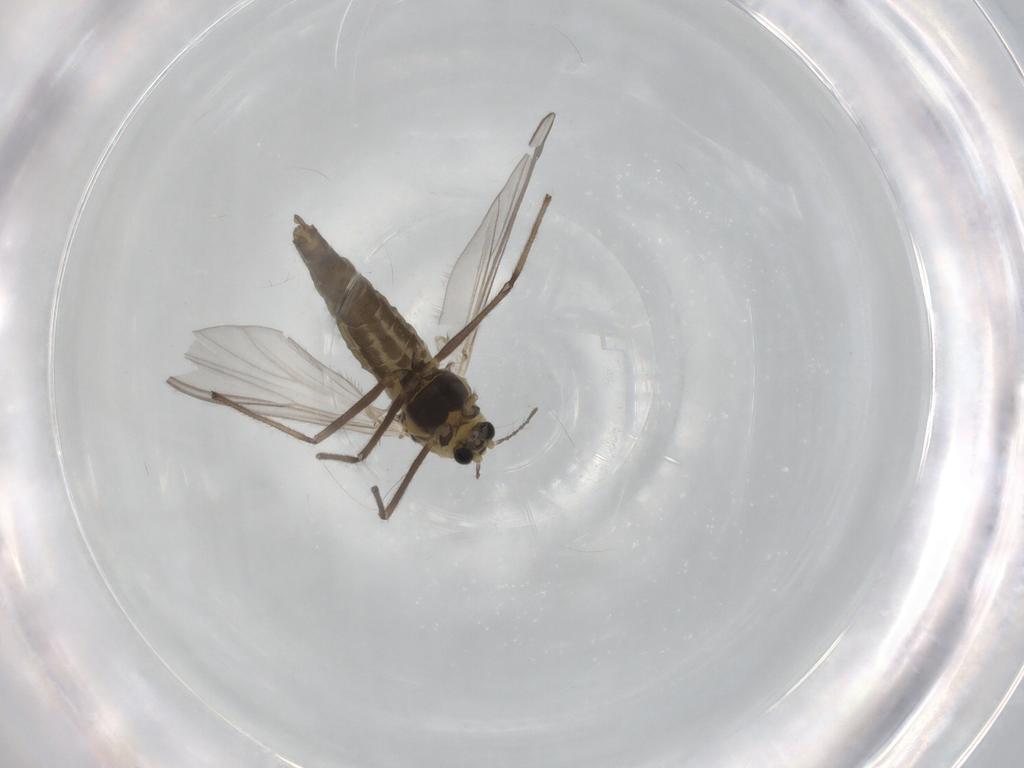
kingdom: Animalia
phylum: Arthropoda
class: Insecta
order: Diptera
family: Chironomidae
